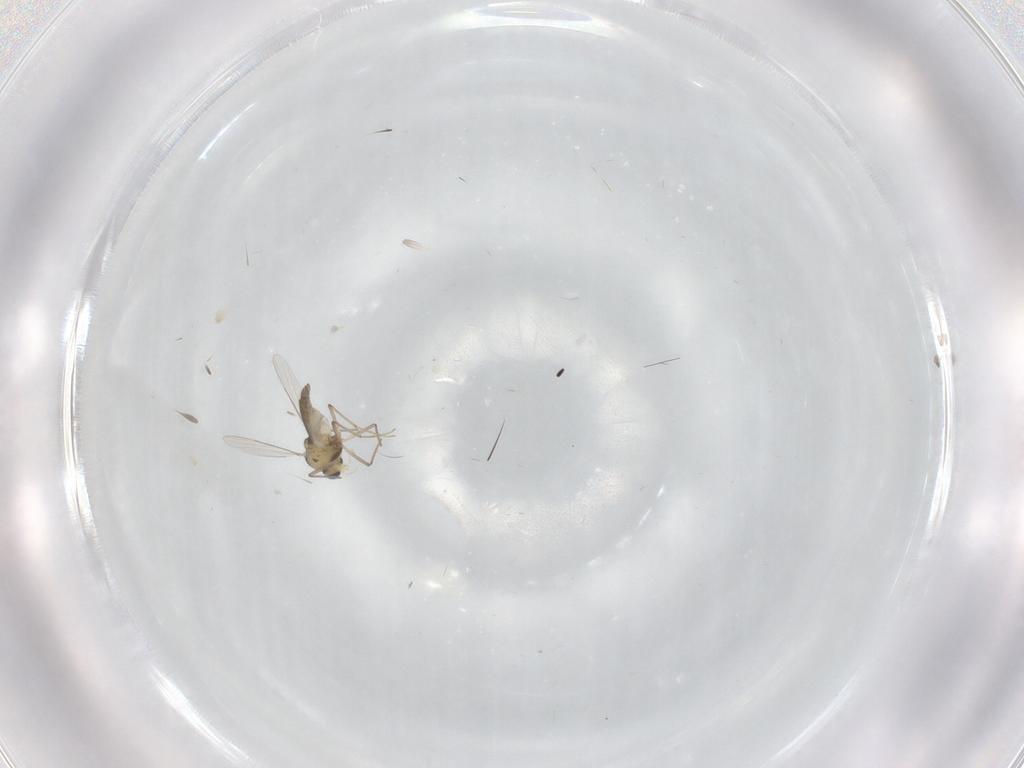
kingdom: Animalia
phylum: Arthropoda
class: Insecta
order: Diptera
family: Chironomidae
